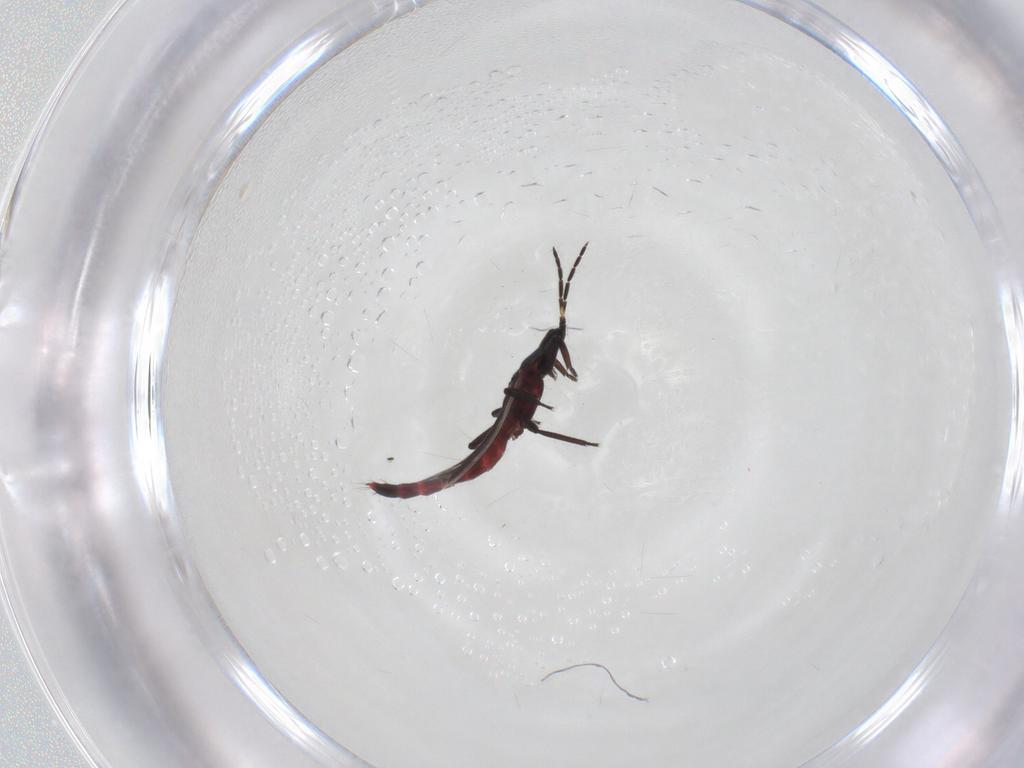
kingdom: Animalia
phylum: Arthropoda
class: Insecta
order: Thysanoptera
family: Aeolothripidae
